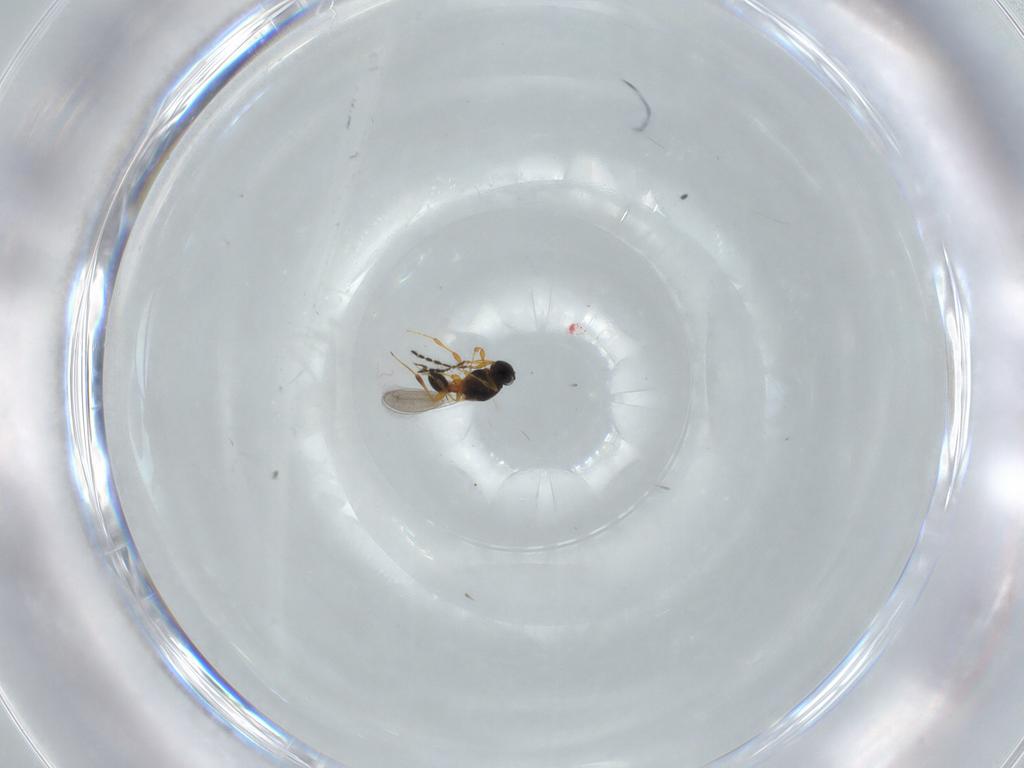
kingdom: Animalia
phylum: Arthropoda
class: Insecta
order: Hymenoptera
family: Platygastridae
